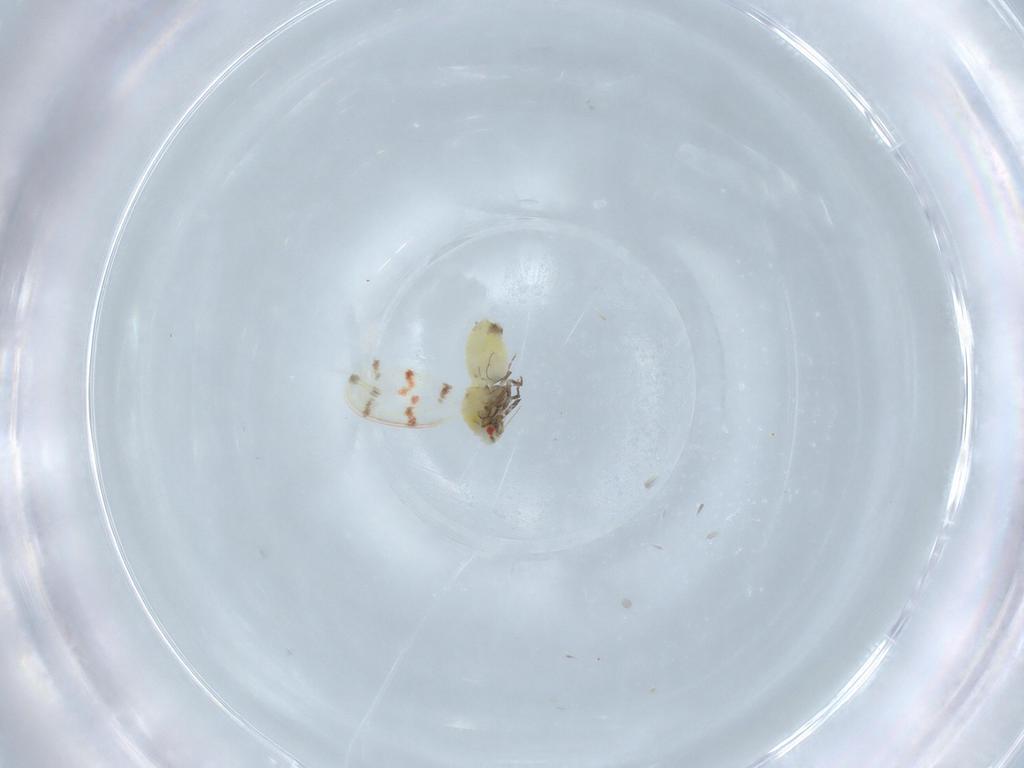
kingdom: Animalia
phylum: Arthropoda
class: Insecta
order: Hemiptera
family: Aleyrodidae
